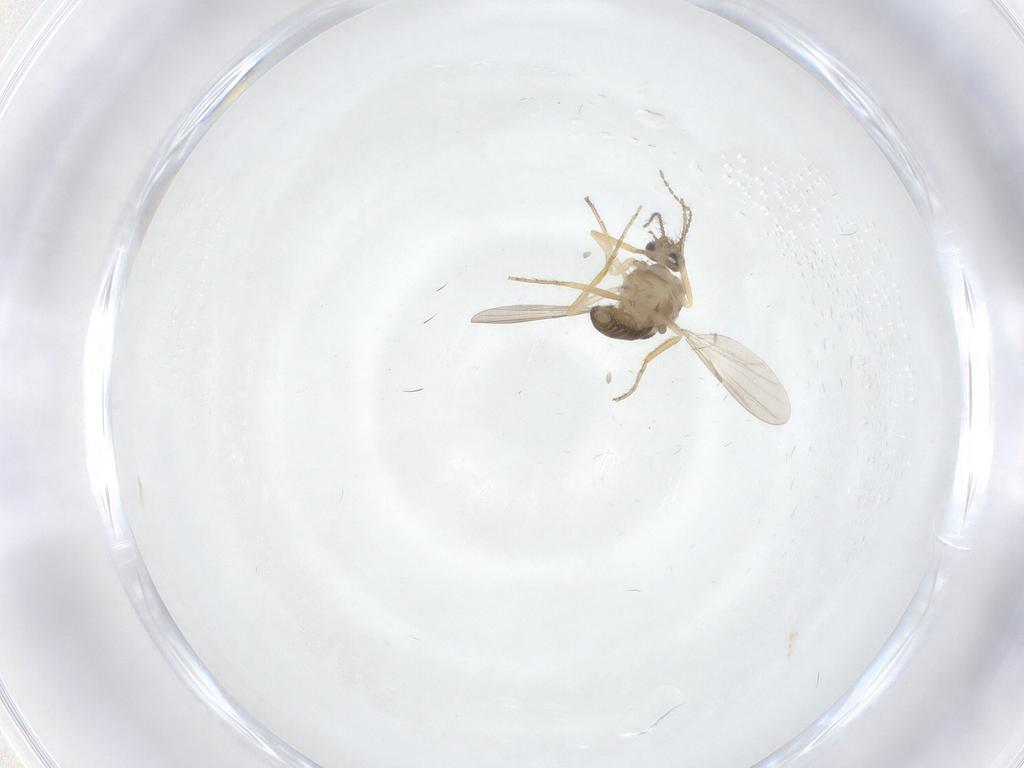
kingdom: Animalia
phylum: Arthropoda
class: Insecta
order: Diptera
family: Ceratopogonidae
